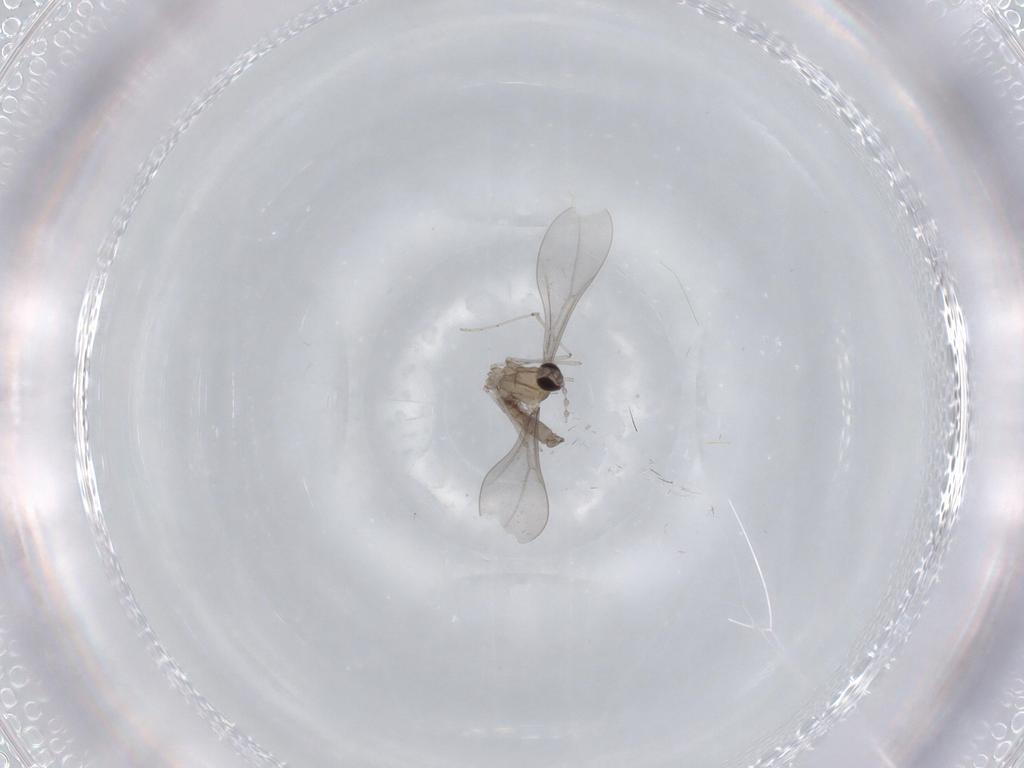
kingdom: Animalia
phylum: Arthropoda
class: Insecta
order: Diptera
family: Cecidomyiidae
